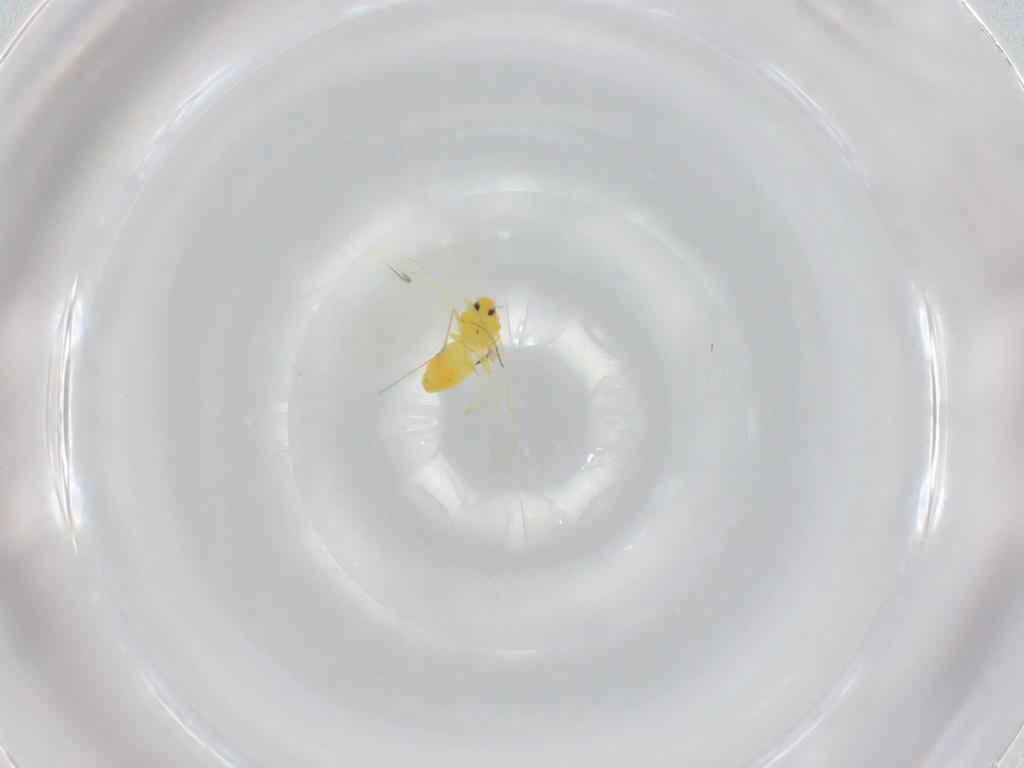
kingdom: Animalia
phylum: Arthropoda
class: Insecta
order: Hemiptera
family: Aleyrodidae
